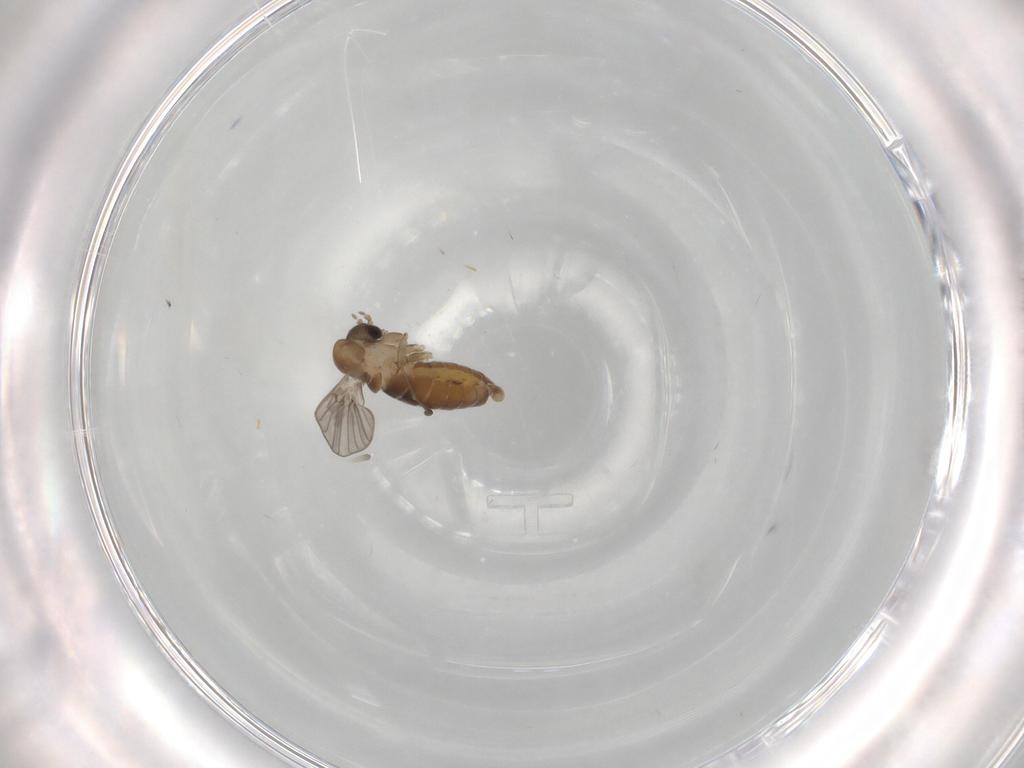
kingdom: Animalia
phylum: Arthropoda
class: Insecta
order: Diptera
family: Psychodidae
